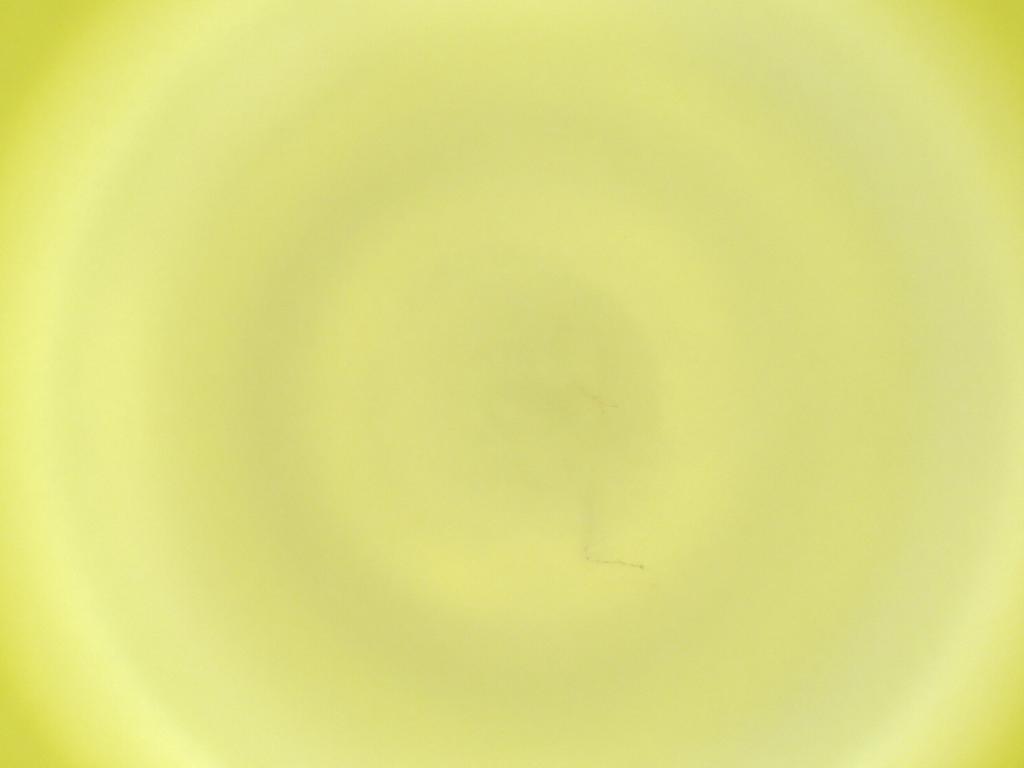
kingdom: Animalia
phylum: Arthropoda
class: Insecta
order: Diptera
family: Cecidomyiidae
